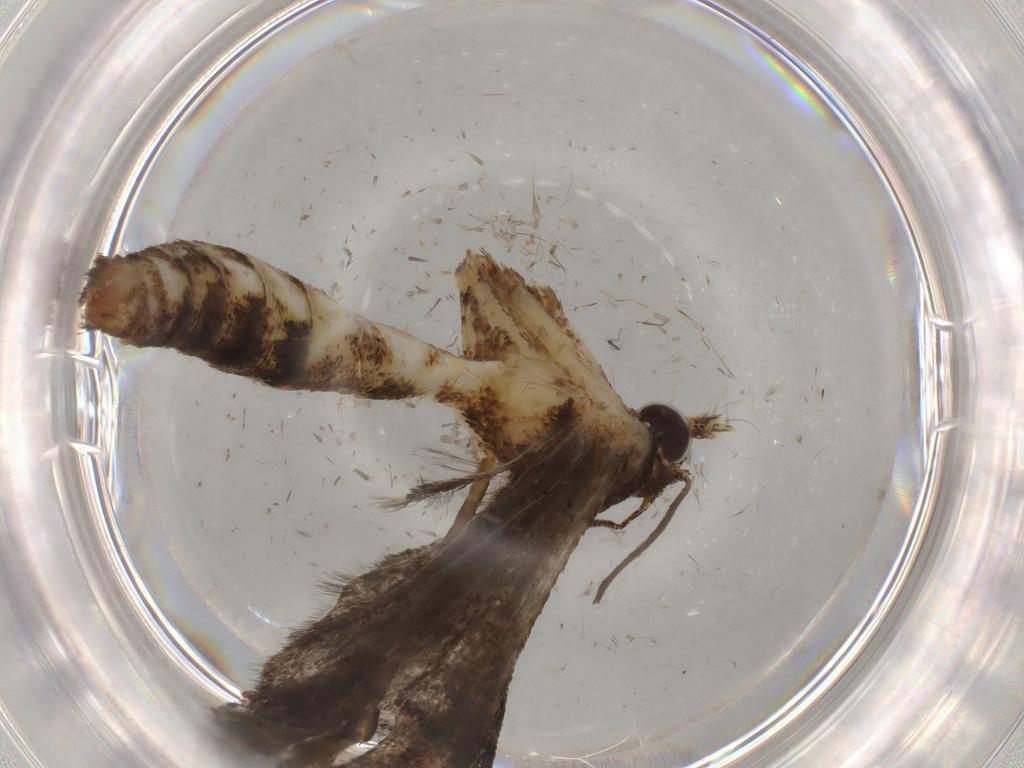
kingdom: Animalia
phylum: Arthropoda
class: Insecta
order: Lepidoptera
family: Pterophoridae
